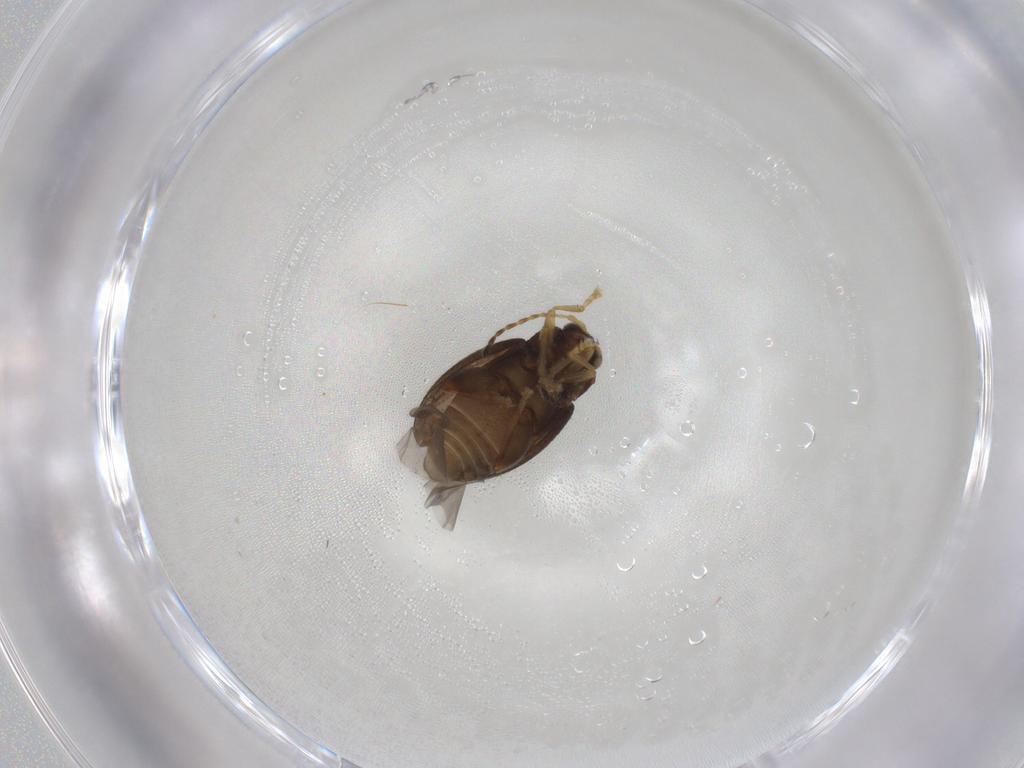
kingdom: Animalia
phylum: Arthropoda
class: Insecta
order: Coleoptera
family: Chrysomelidae
